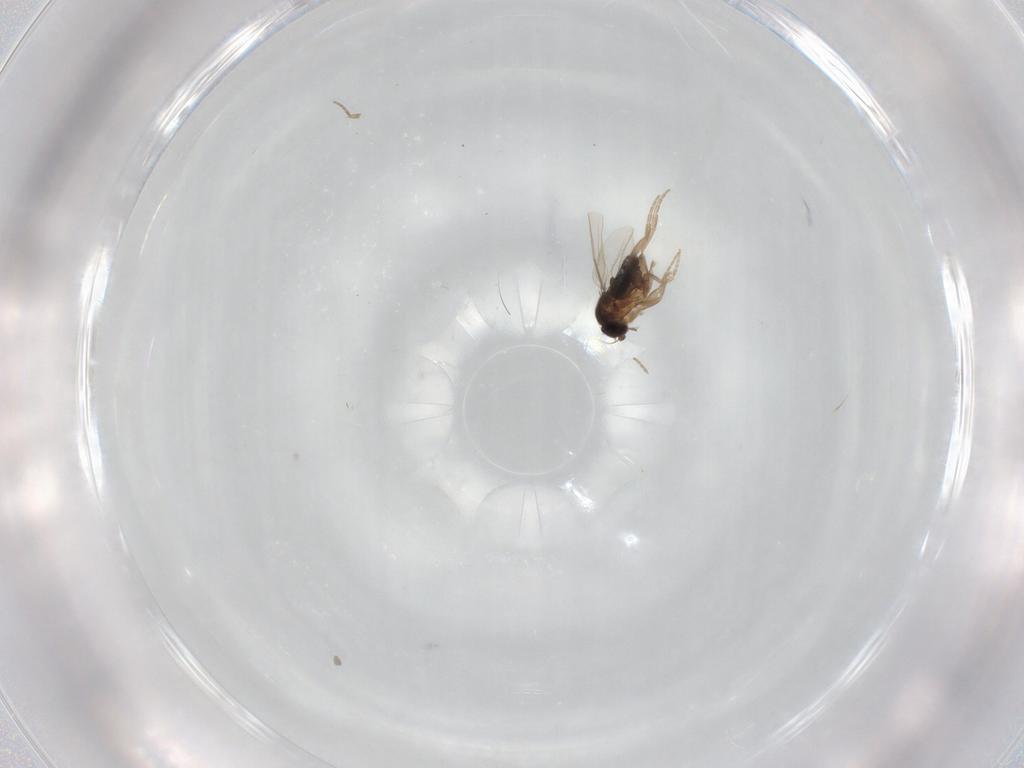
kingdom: Animalia
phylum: Arthropoda
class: Insecta
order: Diptera
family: Phoridae
